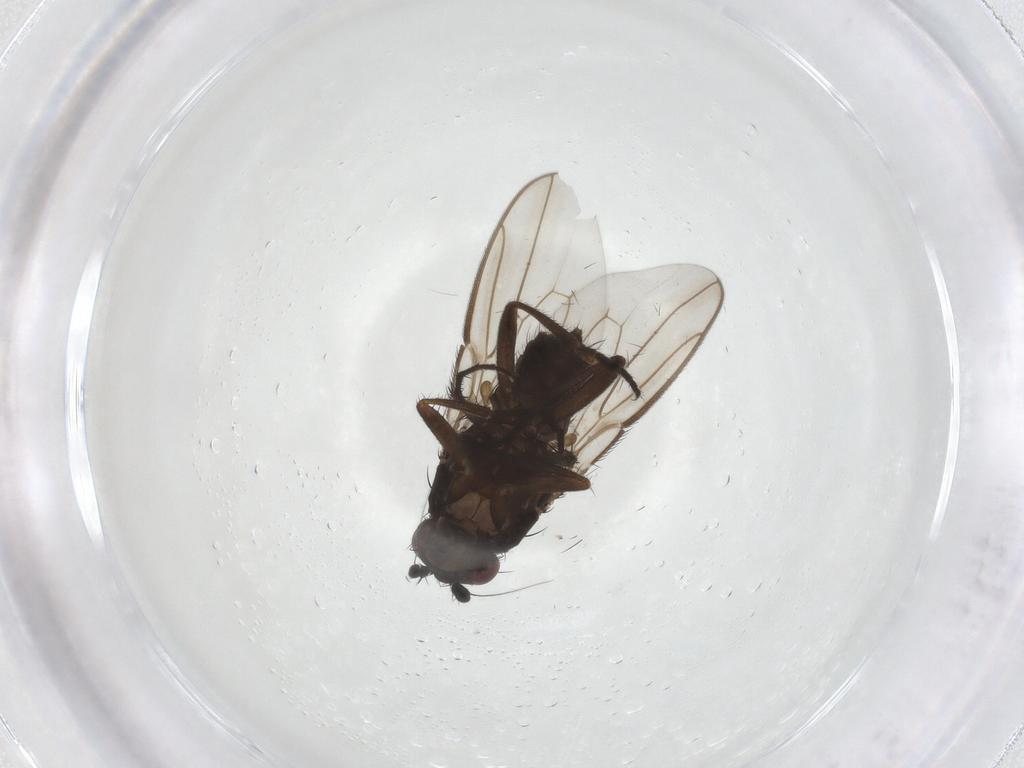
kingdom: Animalia
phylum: Arthropoda
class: Insecta
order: Diptera
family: Sphaeroceridae
